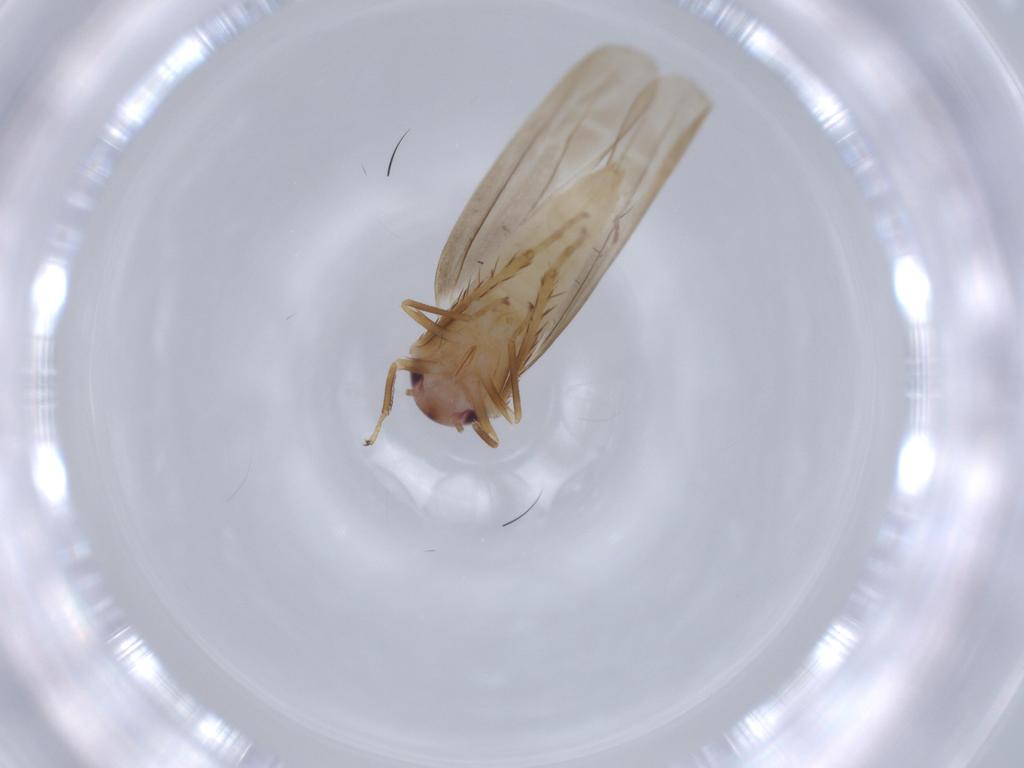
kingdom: Animalia
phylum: Arthropoda
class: Insecta
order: Hemiptera
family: Cicadellidae
